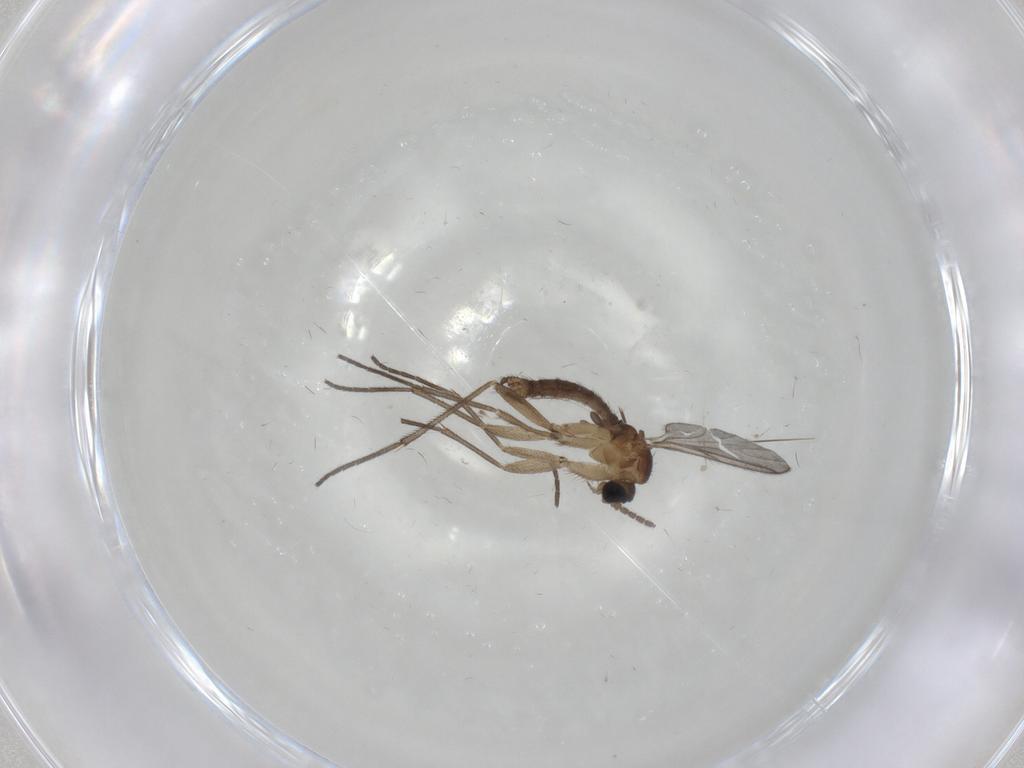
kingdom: Animalia
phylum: Arthropoda
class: Insecta
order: Diptera
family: Sciaridae
